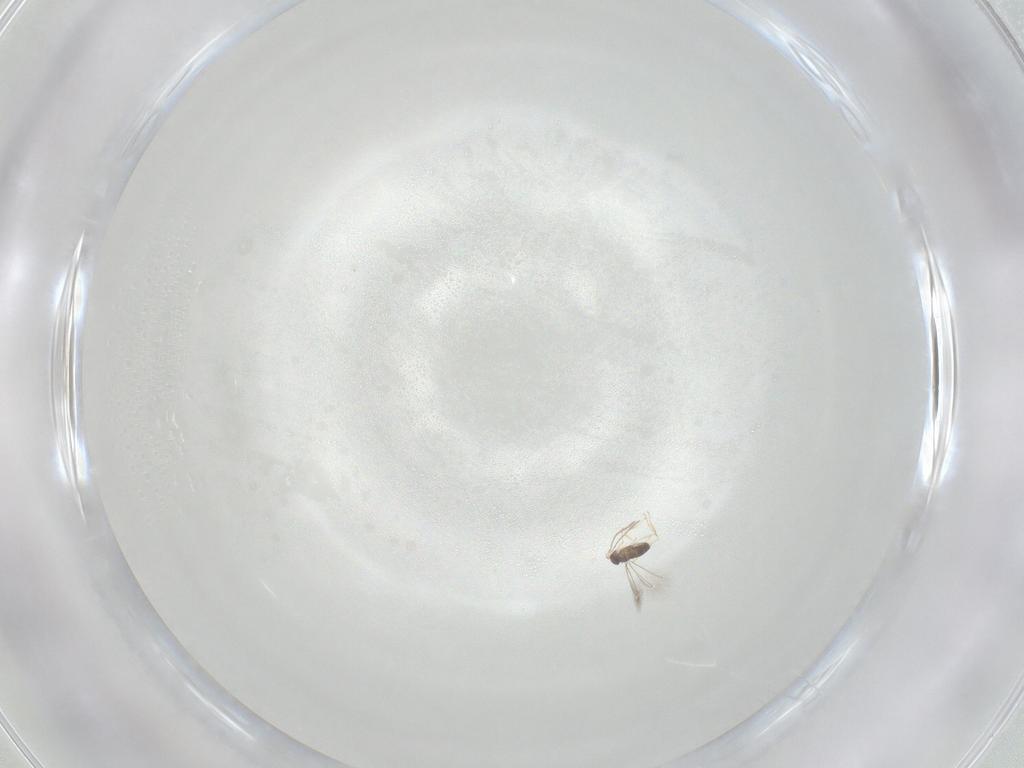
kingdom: Animalia
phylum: Arthropoda
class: Insecta
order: Hymenoptera
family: Mymaridae
